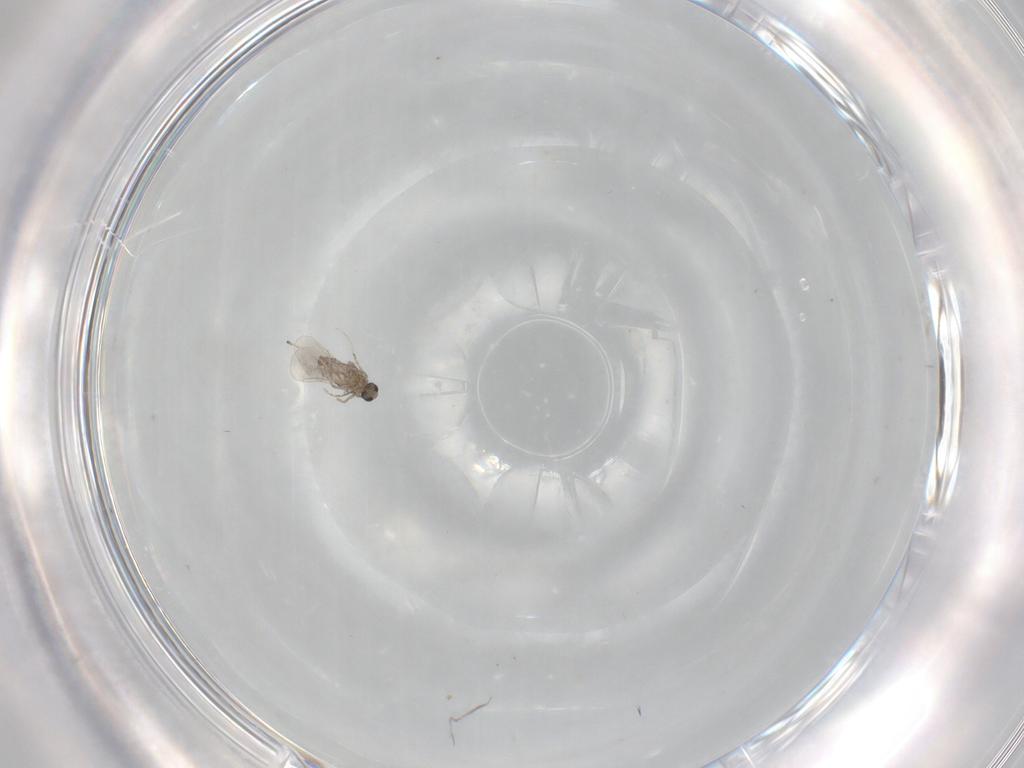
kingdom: Animalia
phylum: Arthropoda
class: Insecta
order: Diptera
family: Cecidomyiidae
